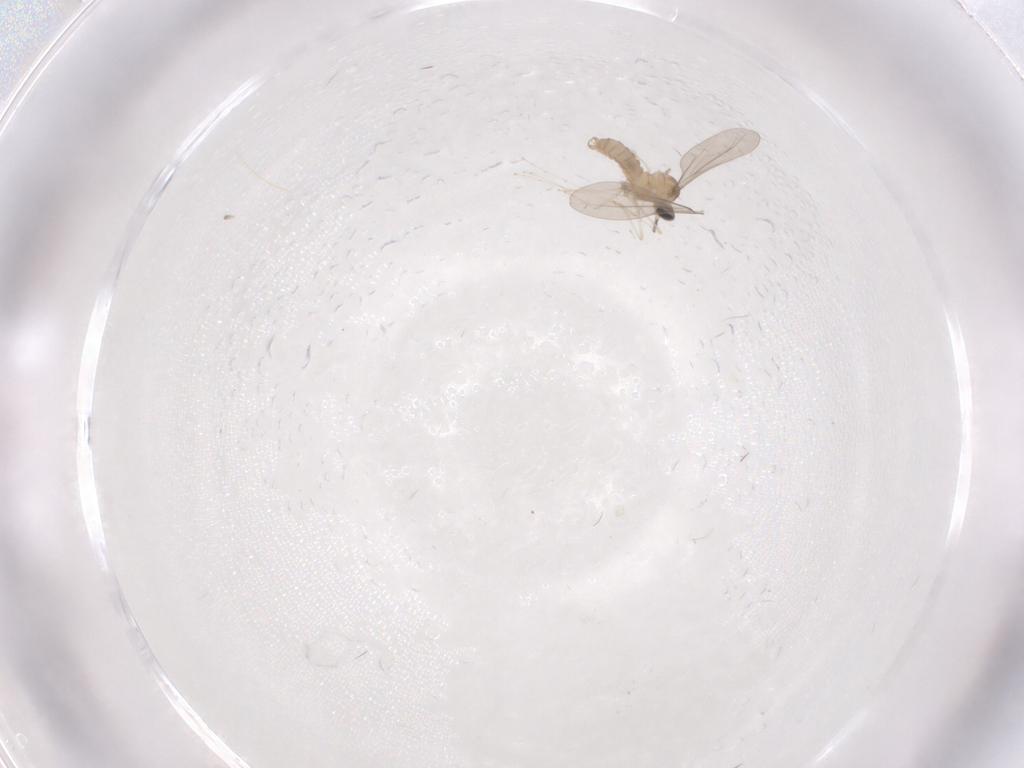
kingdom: Animalia
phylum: Arthropoda
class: Insecta
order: Diptera
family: Cecidomyiidae
